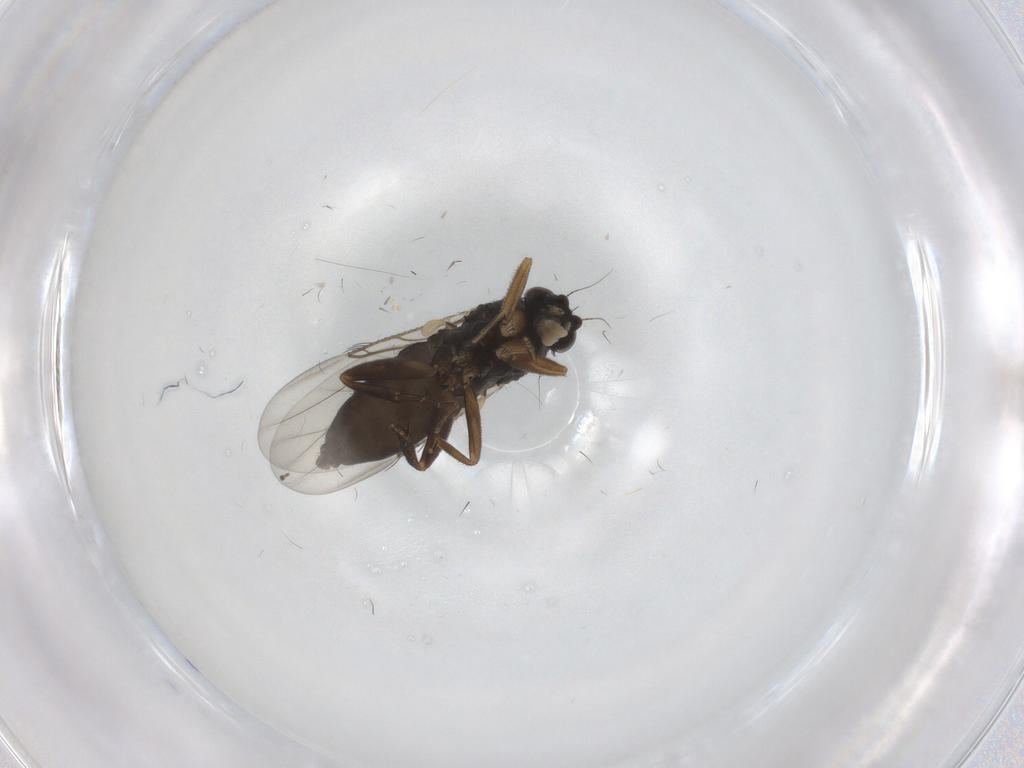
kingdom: Animalia
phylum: Arthropoda
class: Insecta
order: Diptera
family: Phoridae
